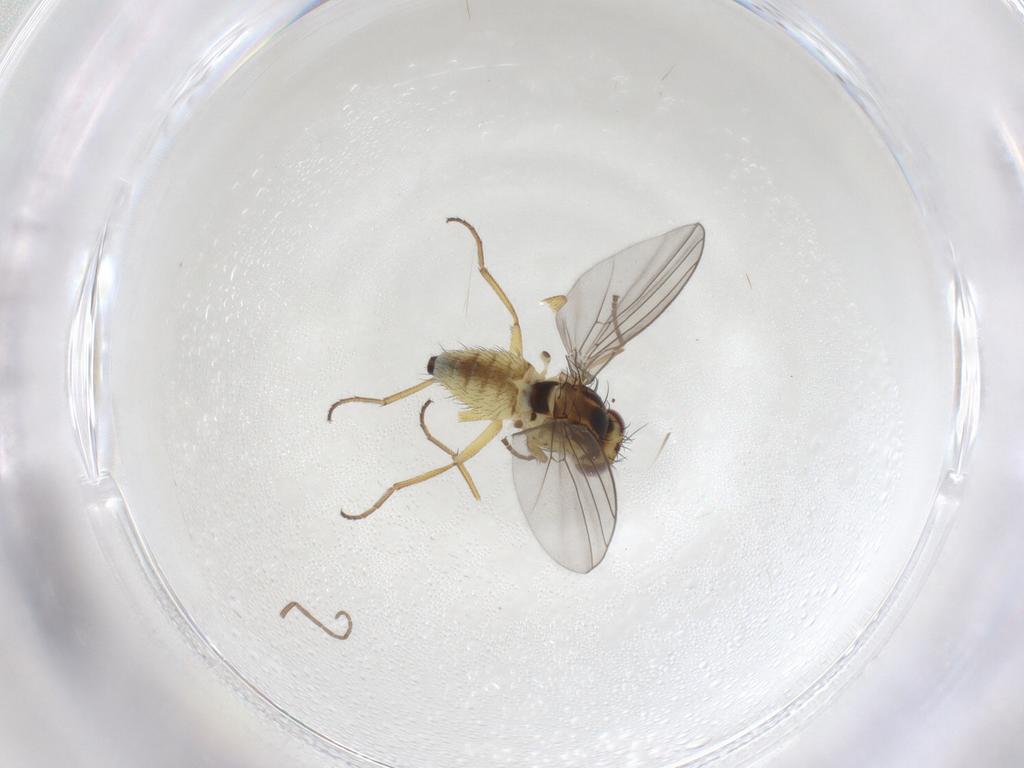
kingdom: Animalia
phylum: Arthropoda
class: Insecta
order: Diptera
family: Agromyzidae
